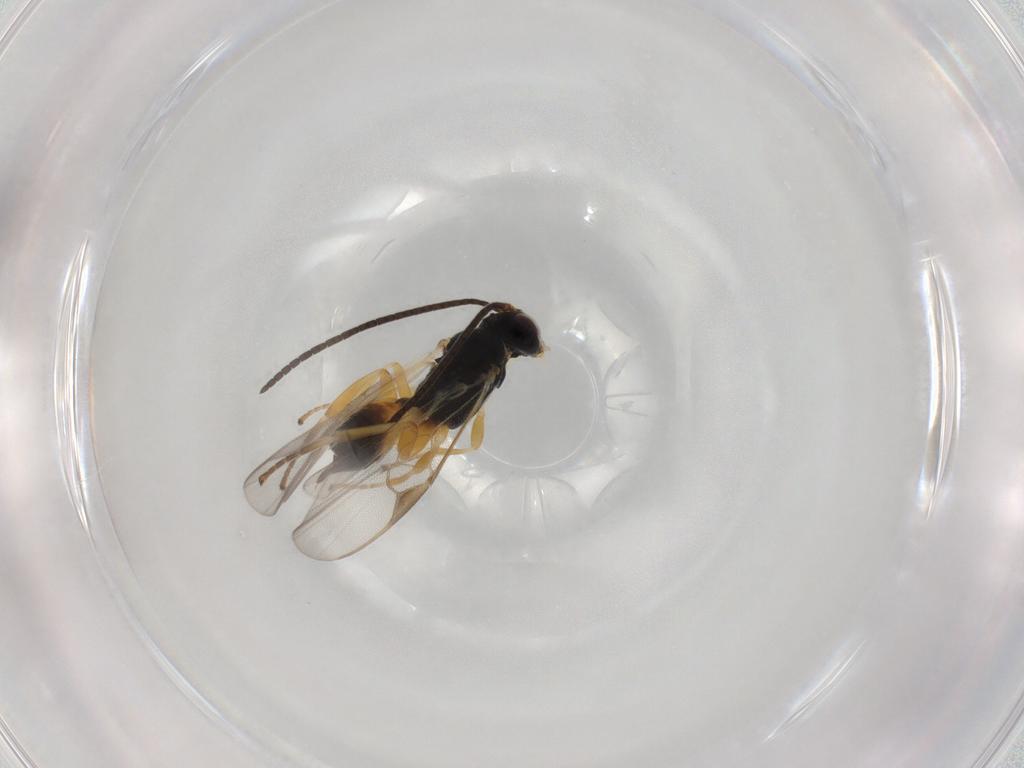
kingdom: Animalia
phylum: Arthropoda
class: Insecta
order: Hymenoptera
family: Braconidae
